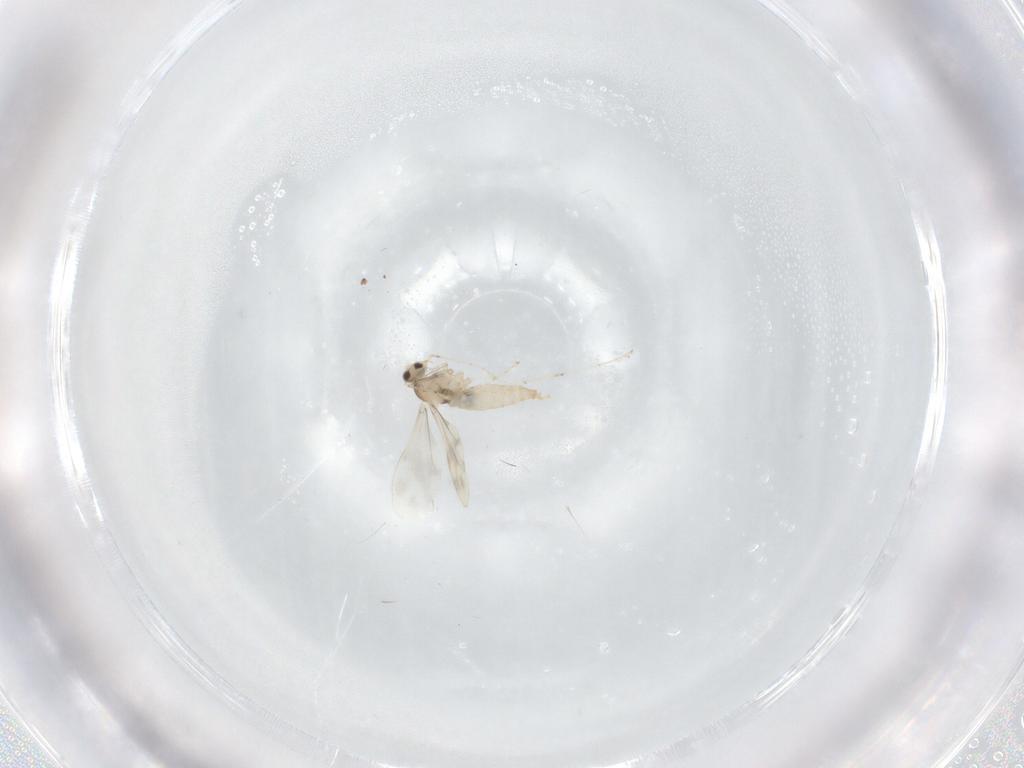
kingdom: Animalia
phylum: Arthropoda
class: Insecta
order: Diptera
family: Cecidomyiidae
